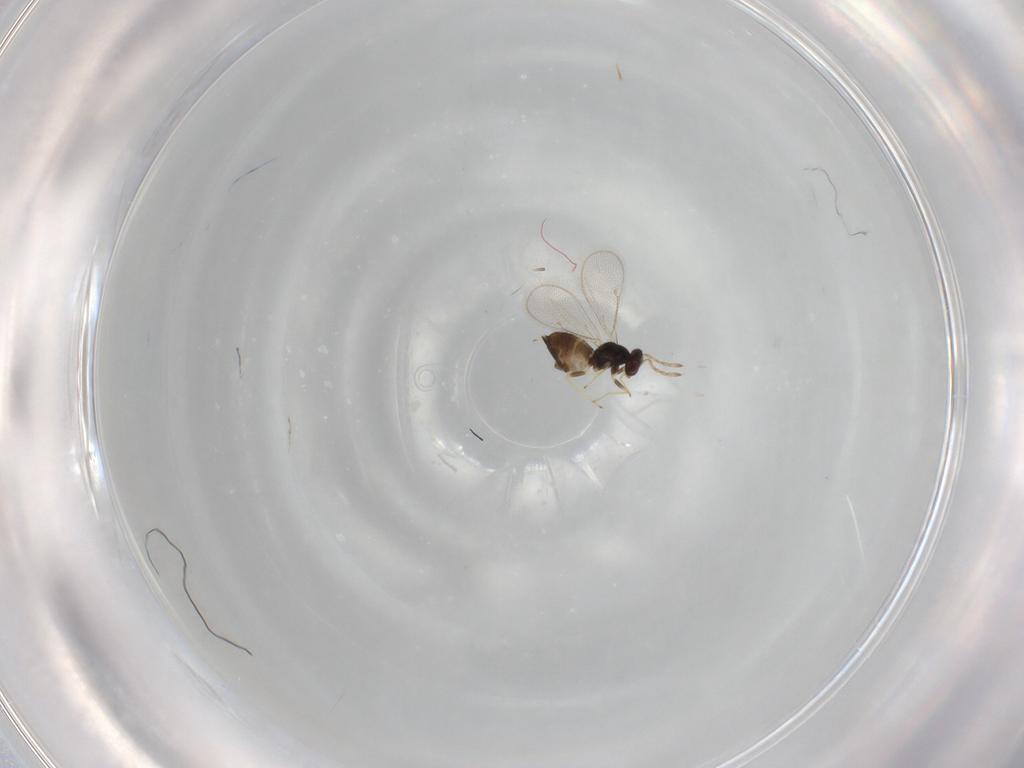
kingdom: Animalia
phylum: Arthropoda
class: Insecta
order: Hymenoptera
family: Eulophidae
